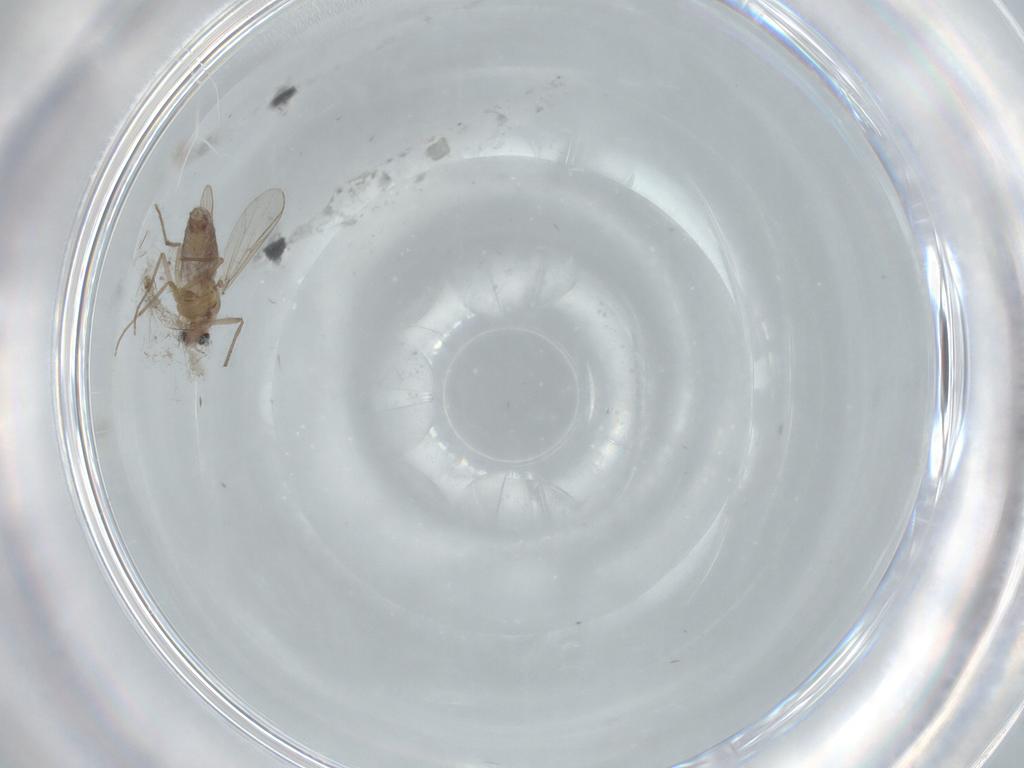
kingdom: Animalia
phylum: Arthropoda
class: Insecta
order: Diptera
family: Chironomidae
